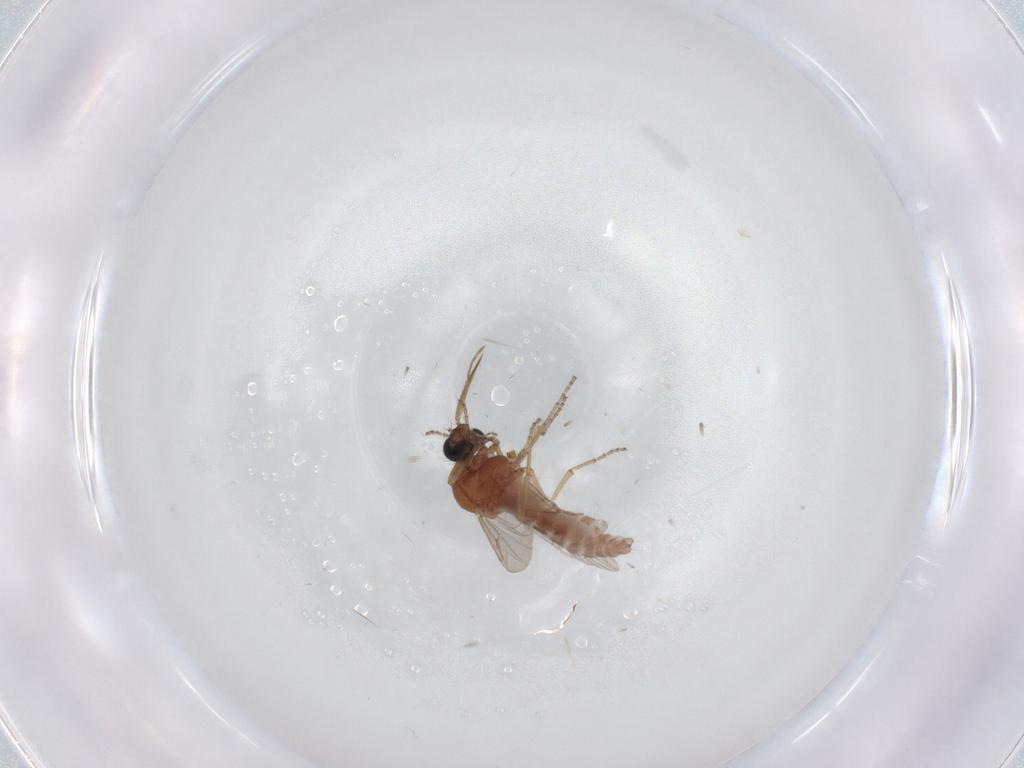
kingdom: Animalia
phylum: Arthropoda
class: Insecta
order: Diptera
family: Ceratopogonidae
